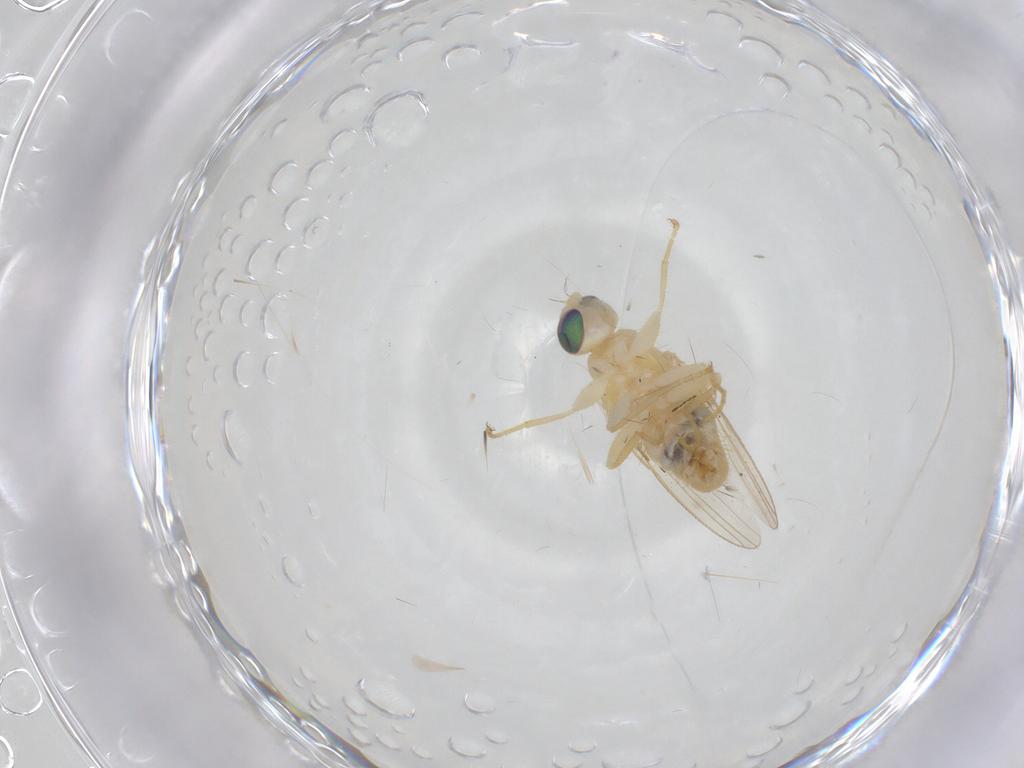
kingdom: Animalia
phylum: Arthropoda
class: Insecta
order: Diptera
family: Chyromyidae
